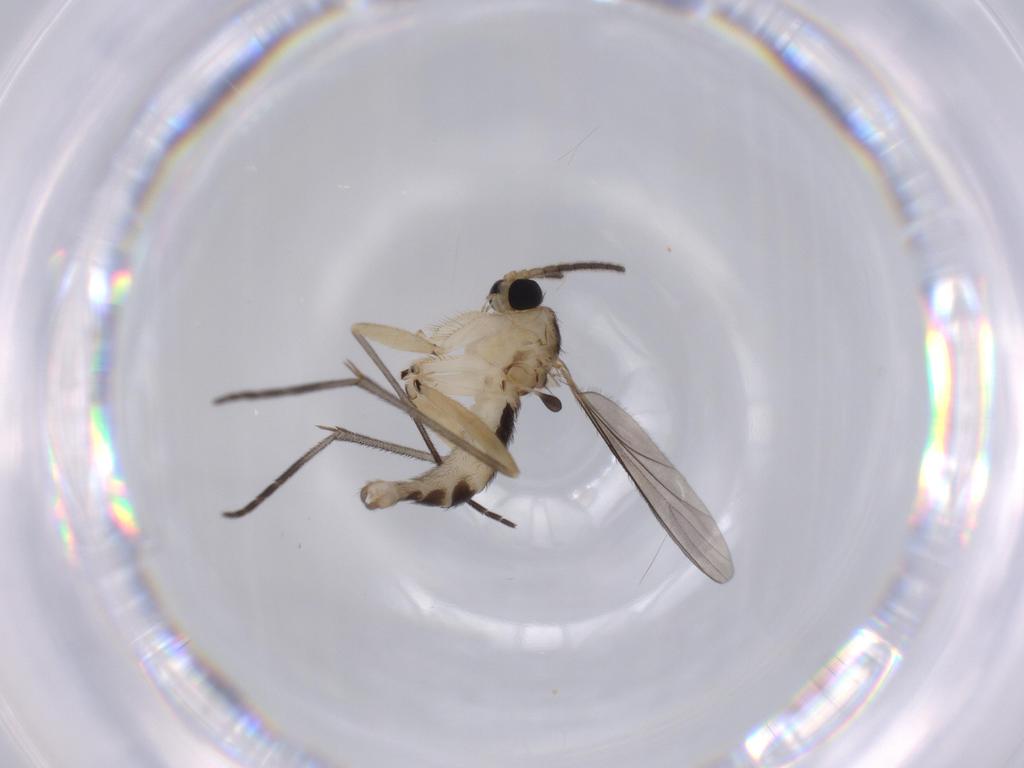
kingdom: Animalia
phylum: Arthropoda
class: Insecta
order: Diptera
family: Sciaridae
